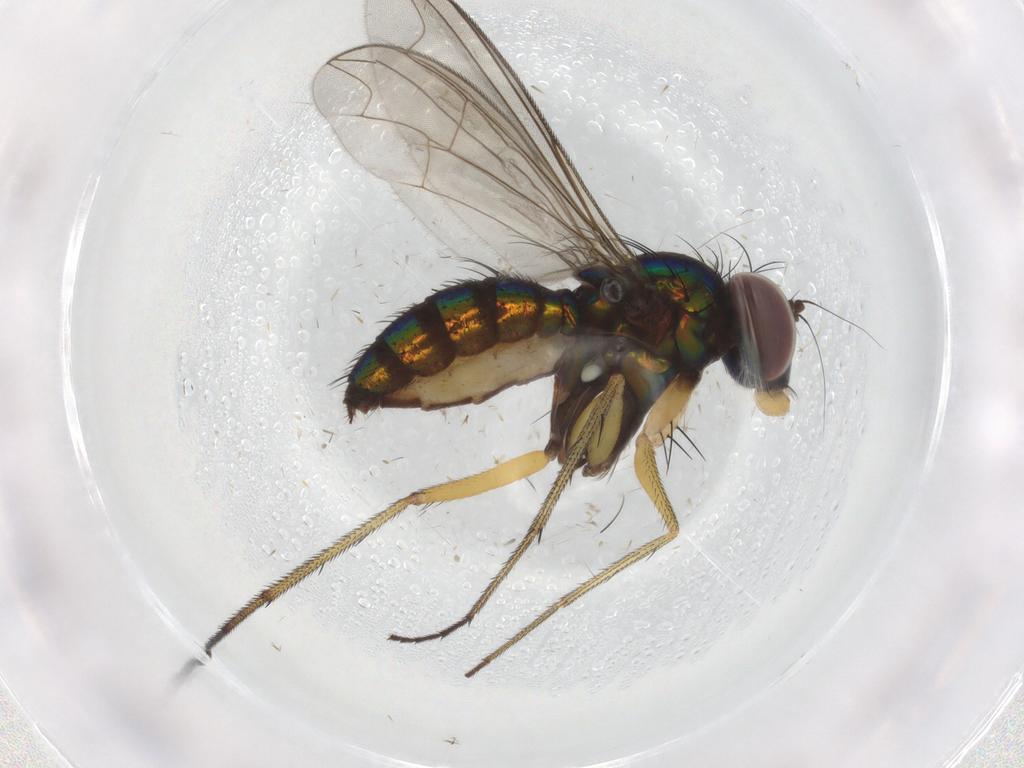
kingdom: Animalia
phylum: Arthropoda
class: Insecta
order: Diptera
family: Dolichopodidae
